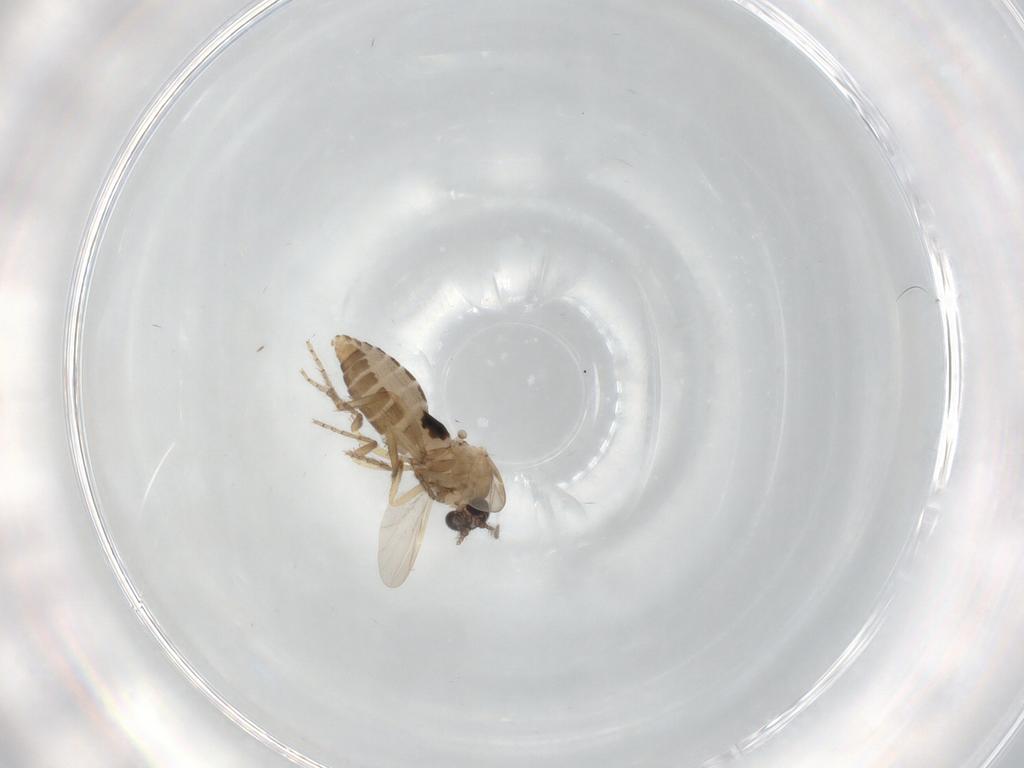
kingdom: Animalia
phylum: Arthropoda
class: Insecta
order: Diptera
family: Ceratopogonidae
